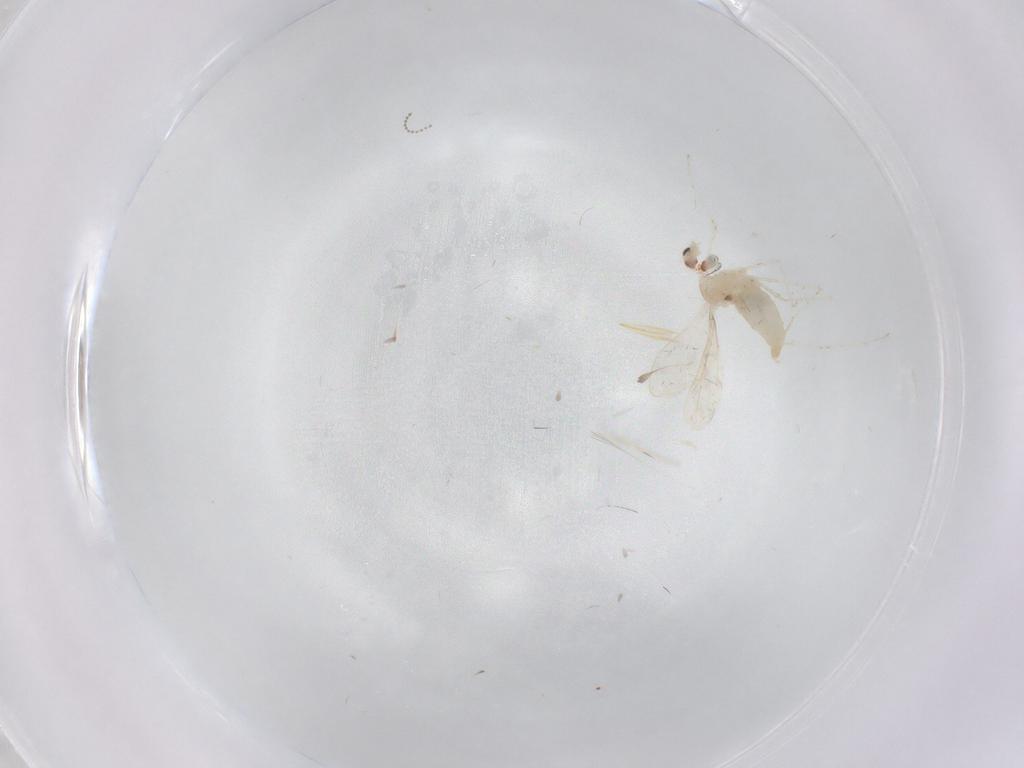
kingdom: Animalia
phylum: Arthropoda
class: Insecta
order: Diptera
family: Cecidomyiidae
